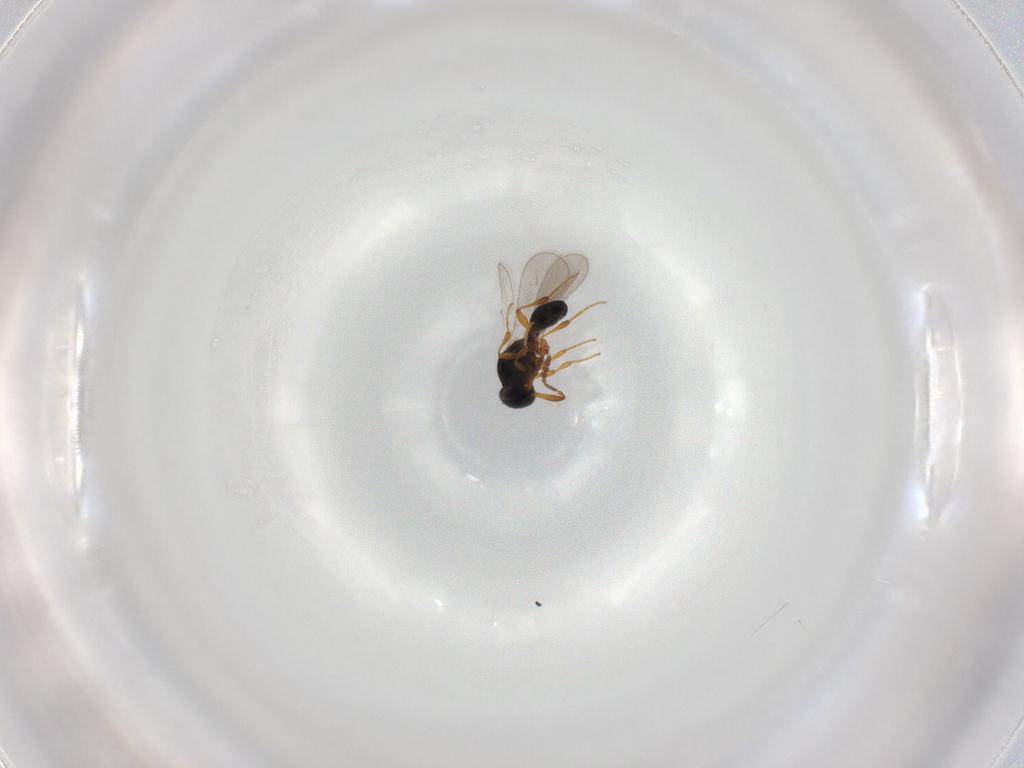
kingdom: Animalia
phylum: Arthropoda
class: Insecta
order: Hymenoptera
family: Platygastridae
